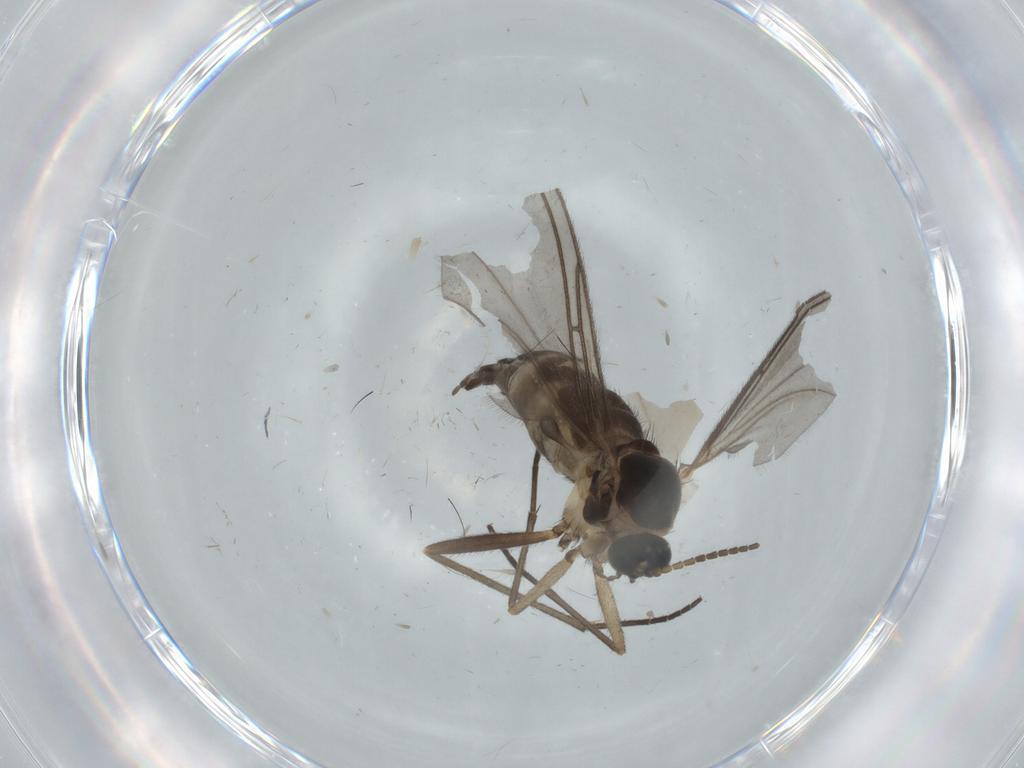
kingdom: Animalia
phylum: Arthropoda
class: Insecta
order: Diptera
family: Sciaridae
